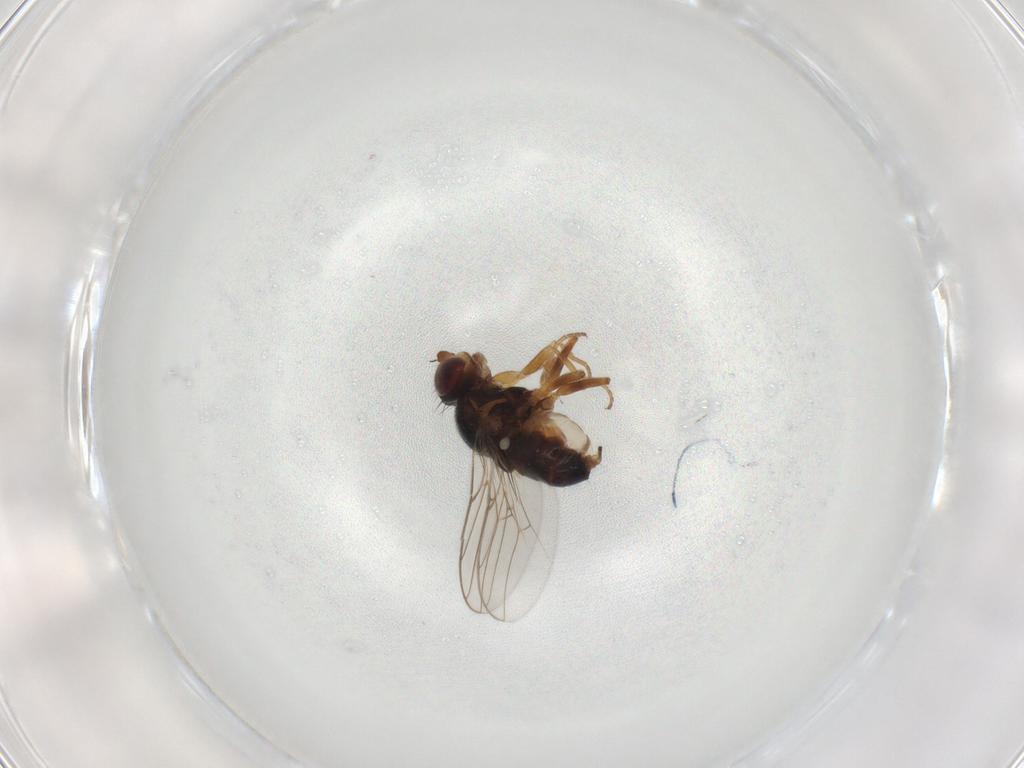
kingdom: Animalia
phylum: Arthropoda
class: Insecta
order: Diptera
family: Chloropidae
